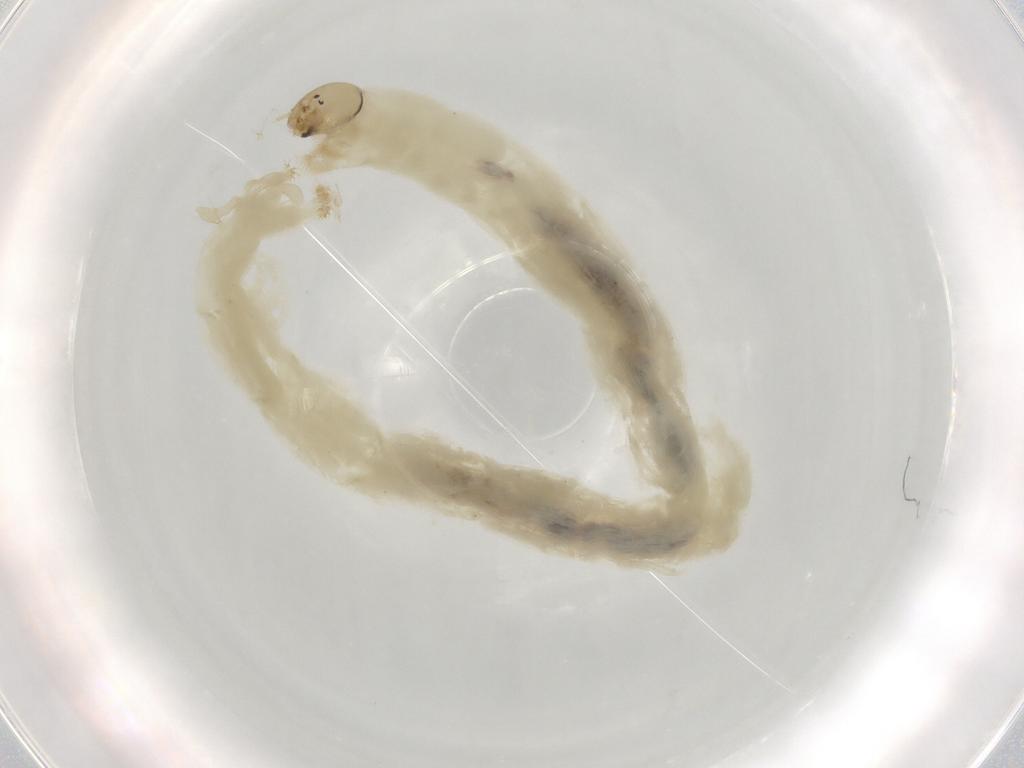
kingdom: Animalia
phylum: Arthropoda
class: Insecta
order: Diptera
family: Chironomidae
